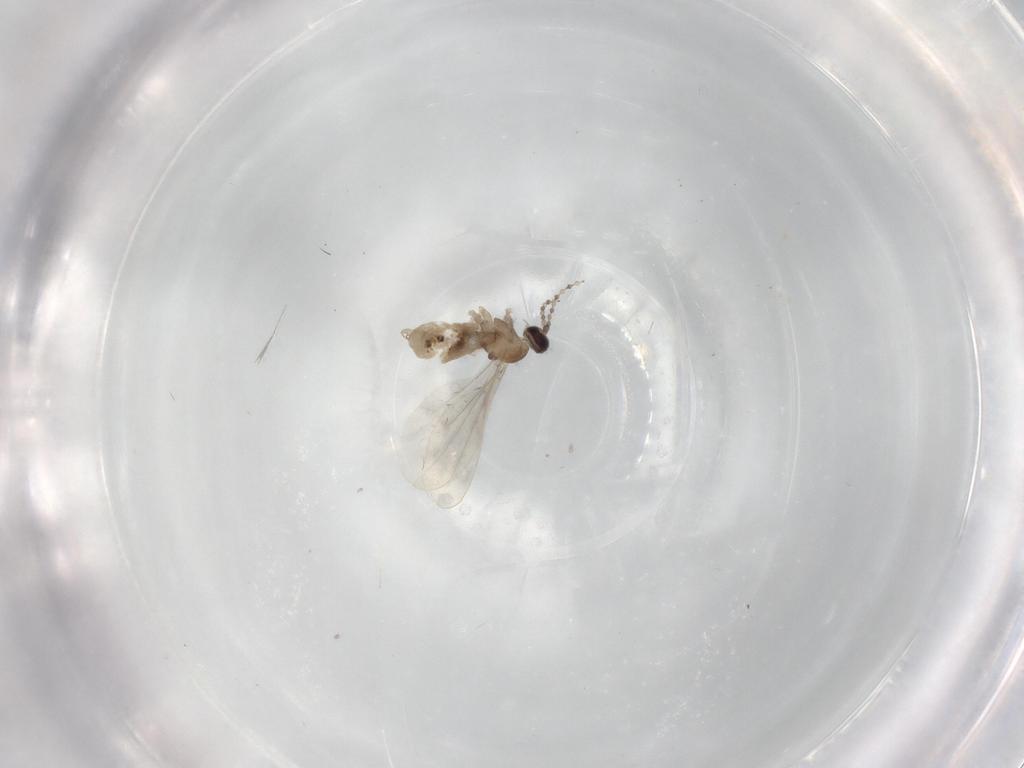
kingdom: Animalia
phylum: Arthropoda
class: Insecta
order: Diptera
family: Cecidomyiidae
